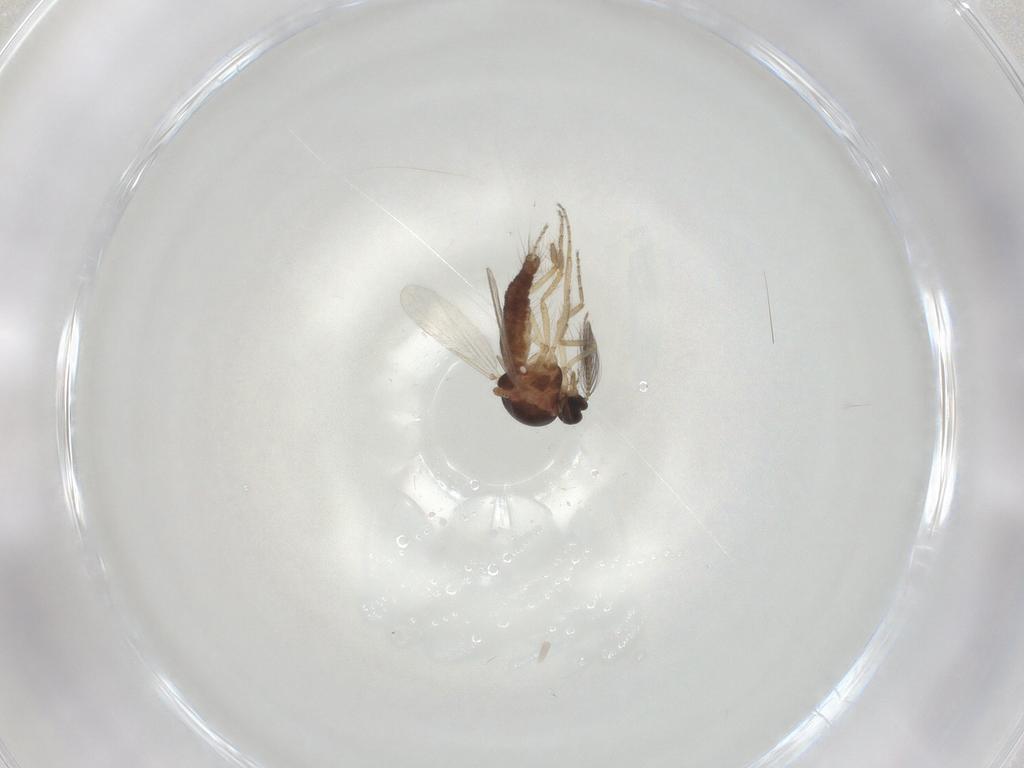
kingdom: Animalia
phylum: Arthropoda
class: Insecta
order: Diptera
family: Ceratopogonidae
